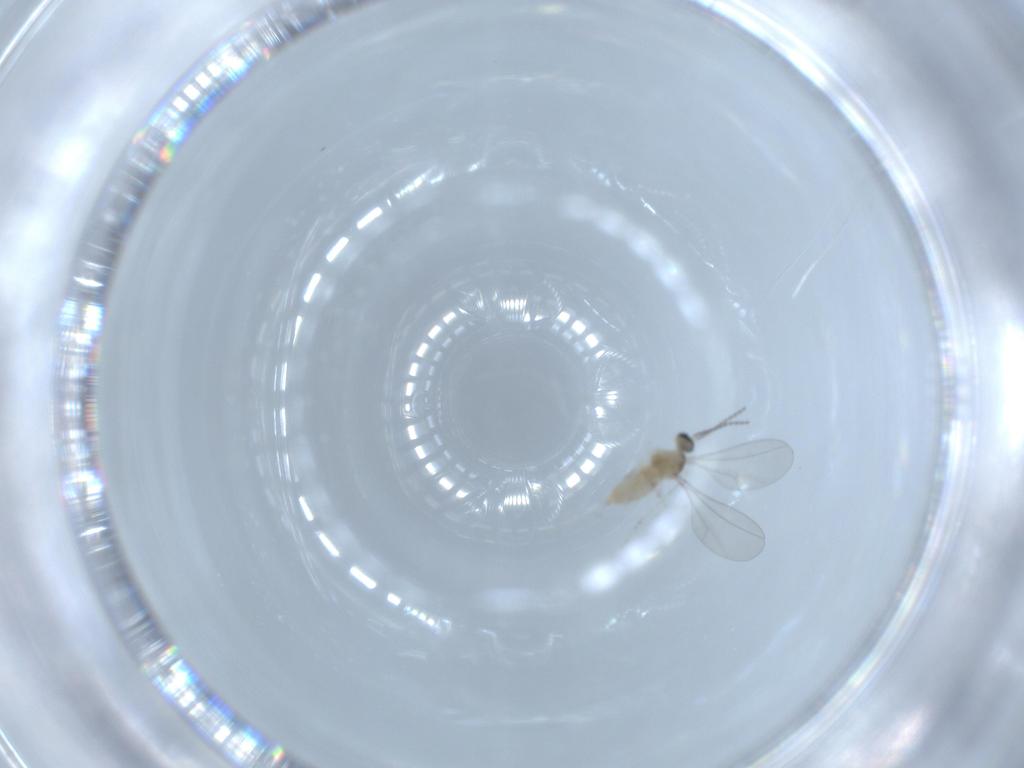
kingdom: Animalia
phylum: Arthropoda
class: Insecta
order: Diptera
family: Cecidomyiidae
